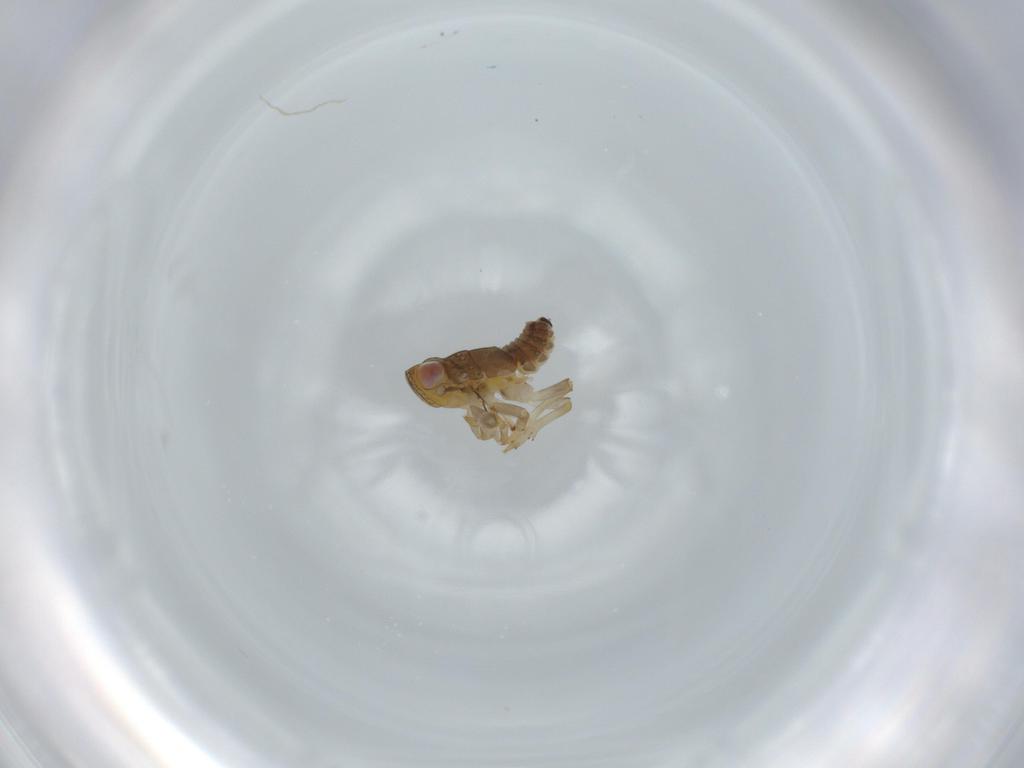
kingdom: Animalia
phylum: Arthropoda
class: Insecta
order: Hemiptera
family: Issidae
